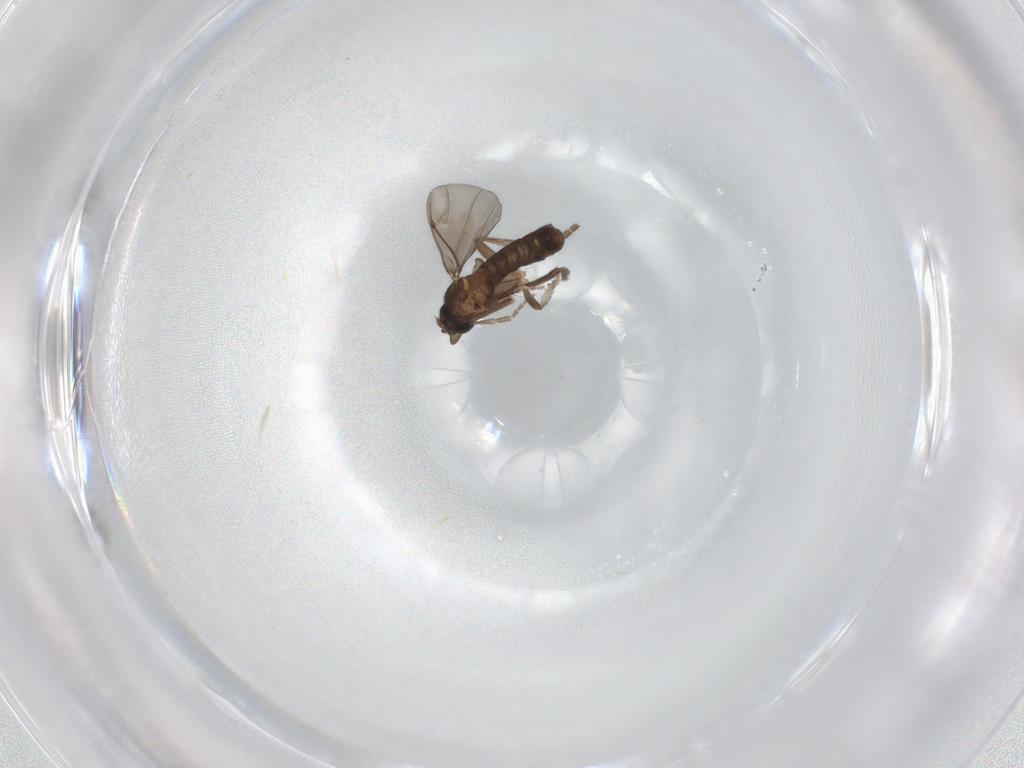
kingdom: Animalia
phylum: Arthropoda
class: Insecta
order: Diptera
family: Phoridae
